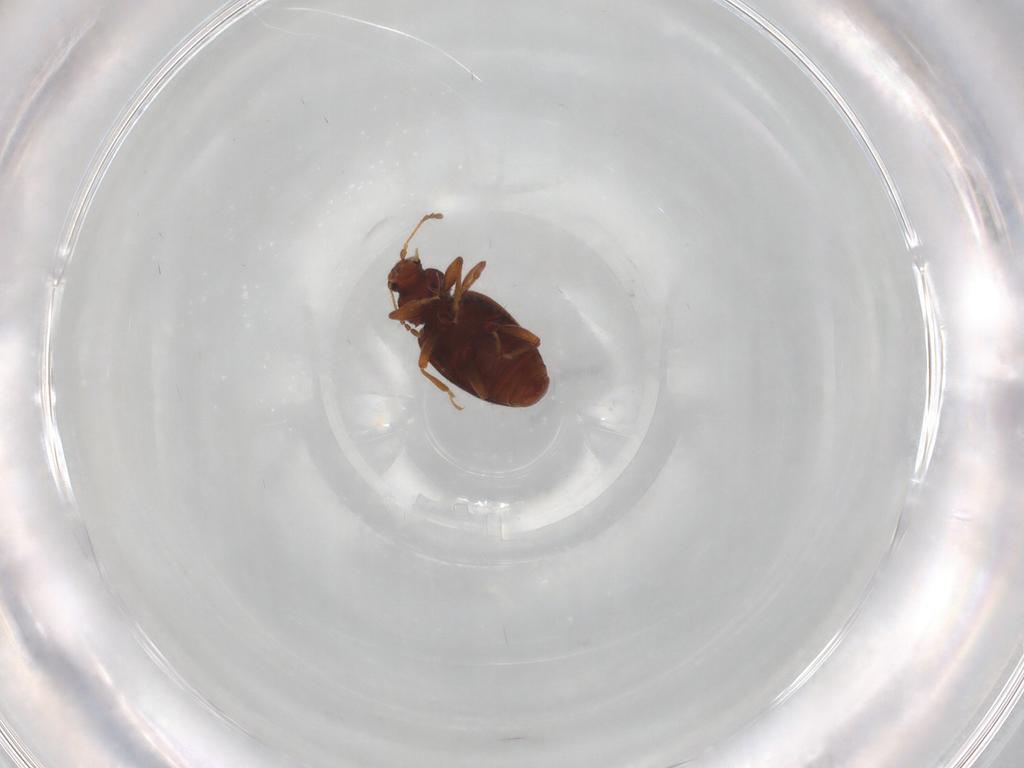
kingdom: Animalia
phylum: Arthropoda
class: Insecta
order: Coleoptera
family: Latridiidae
